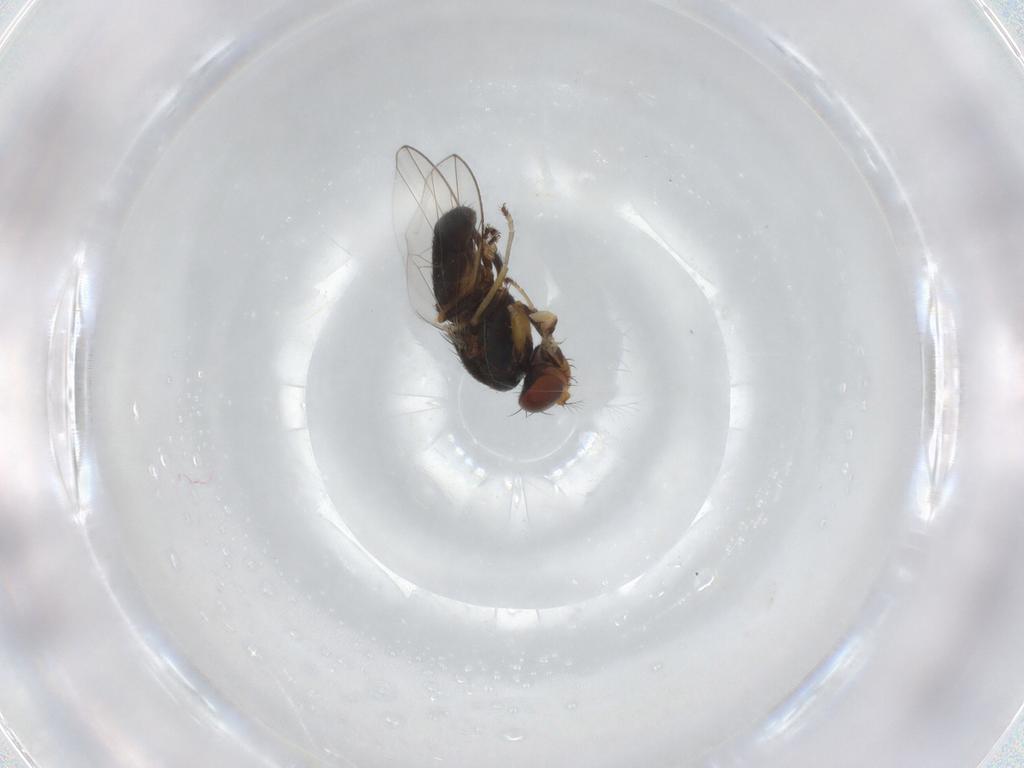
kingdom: Animalia
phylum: Arthropoda
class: Insecta
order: Diptera
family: Ephydridae
